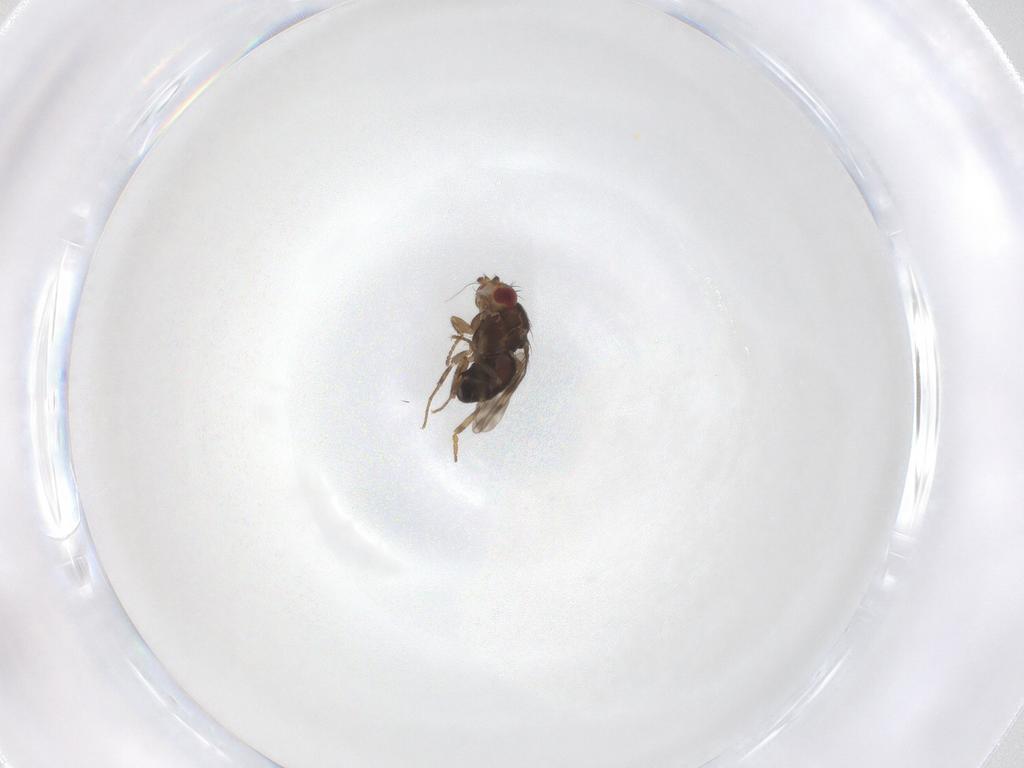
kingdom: Animalia
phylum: Arthropoda
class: Insecta
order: Diptera
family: Sphaeroceridae
